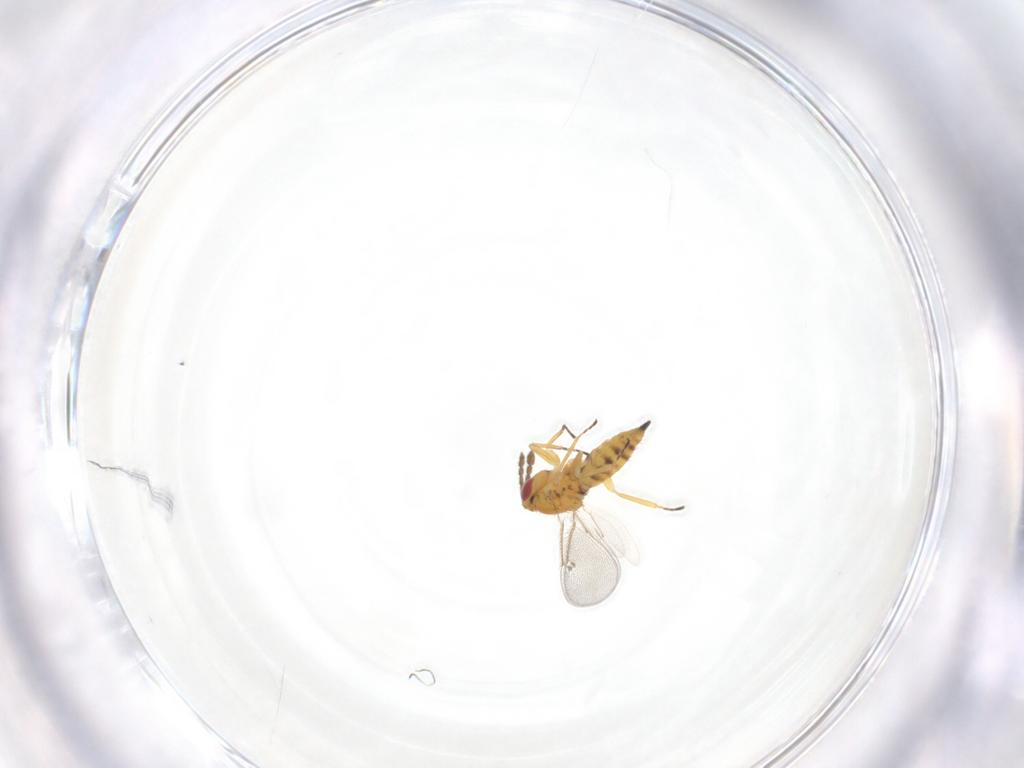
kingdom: Animalia
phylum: Arthropoda
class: Insecta
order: Hymenoptera
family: Eulophidae
